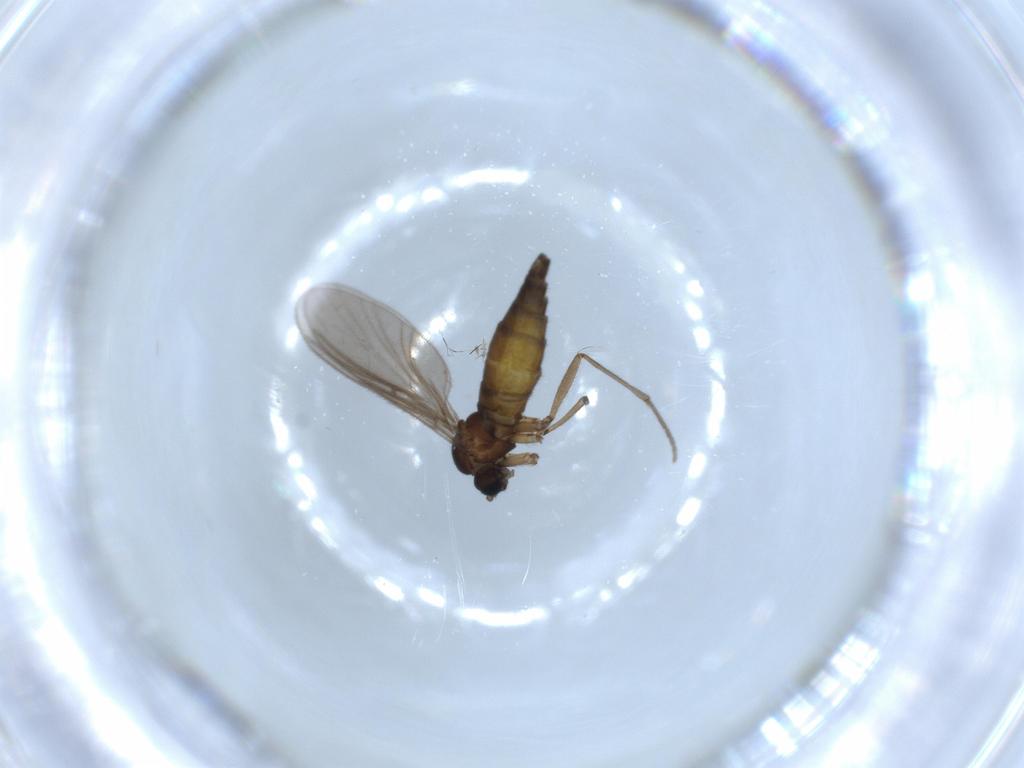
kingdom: Animalia
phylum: Arthropoda
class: Insecta
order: Diptera
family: Sciaridae
